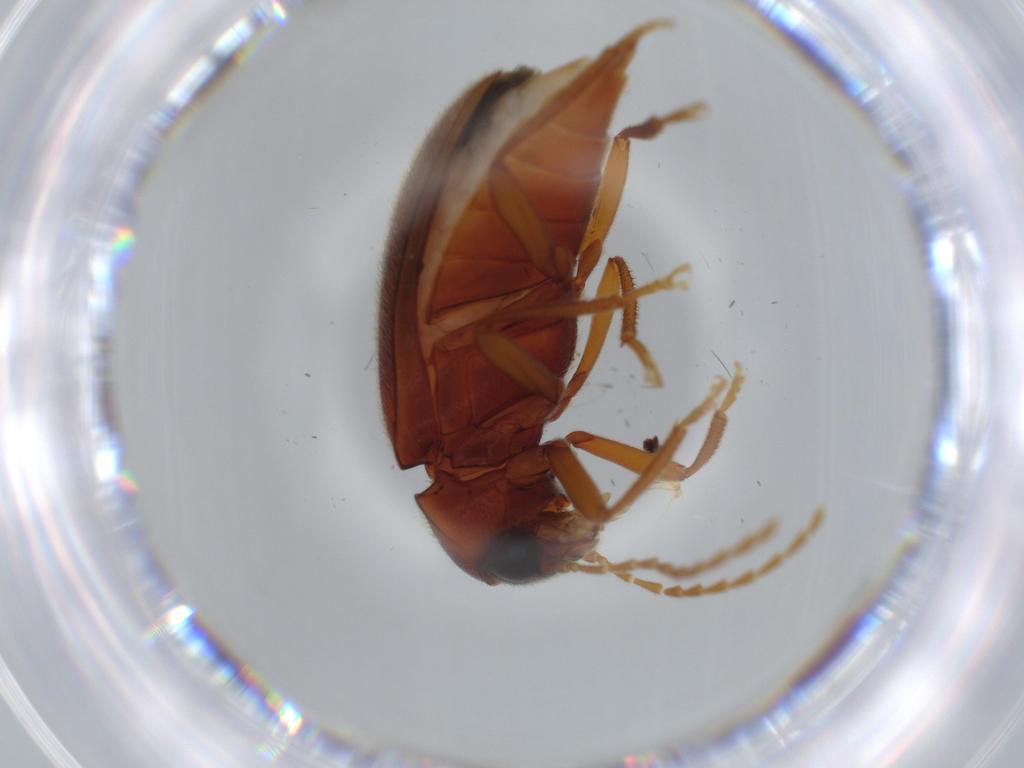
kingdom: Animalia
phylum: Arthropoda
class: Insecta
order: Coleoptera
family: Ptilodactylidae
